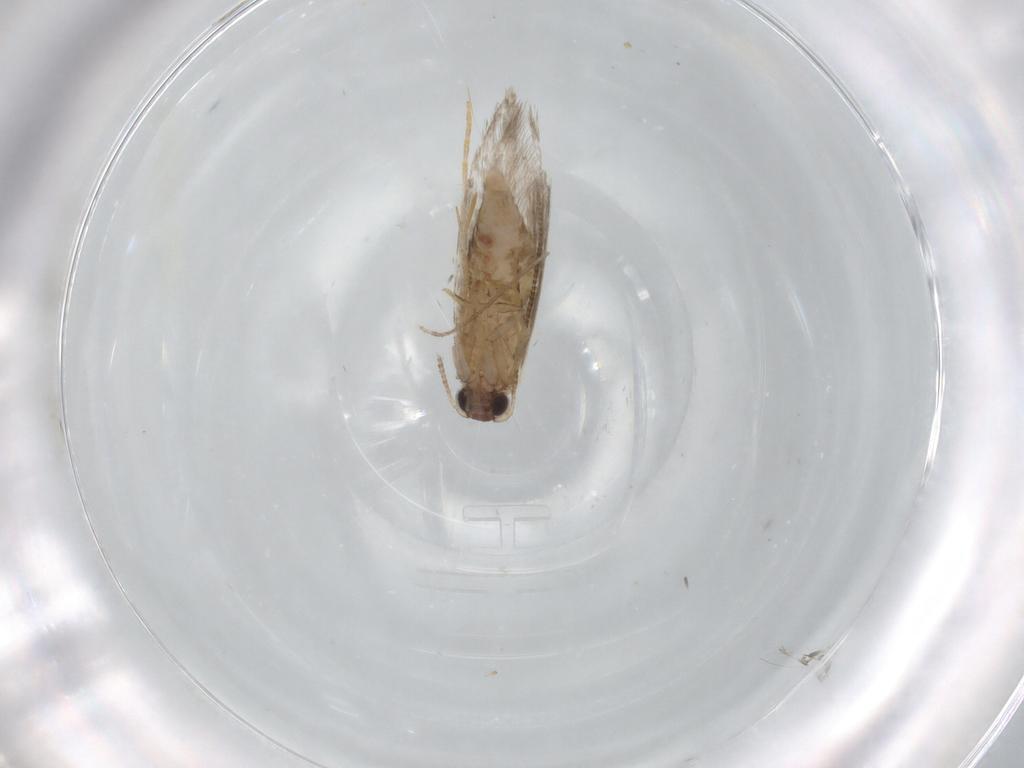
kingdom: Animalia
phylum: Arthropoda
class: Insecta
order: Lepidoptera
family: Tineidae
